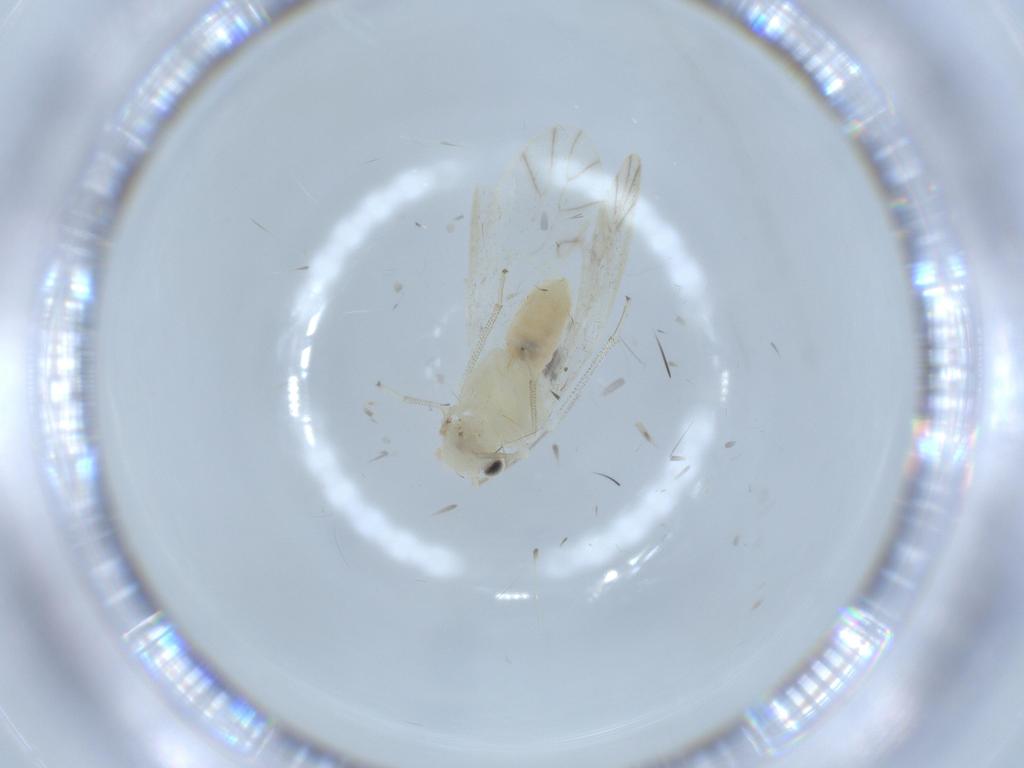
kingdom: Animalia
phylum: Arthropoda
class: Insecta
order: Psocodea
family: Caeciliusidae
